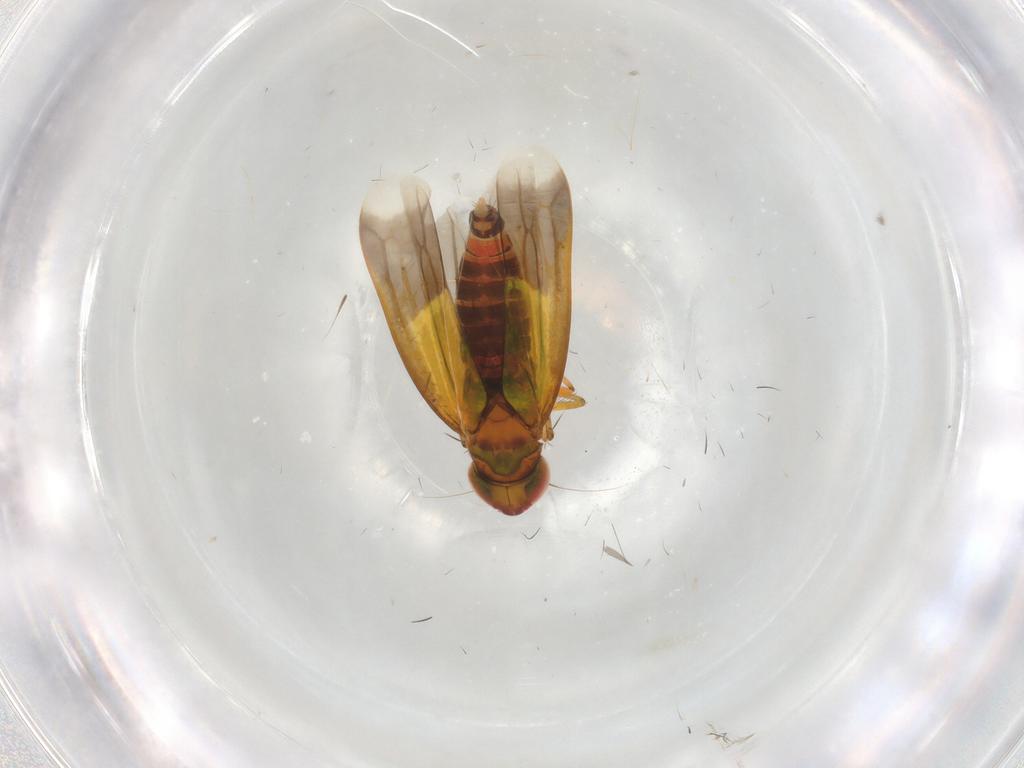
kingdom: Animalia
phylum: Arthropoda
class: Insecta
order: Hemiptera
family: Cicadellidae
